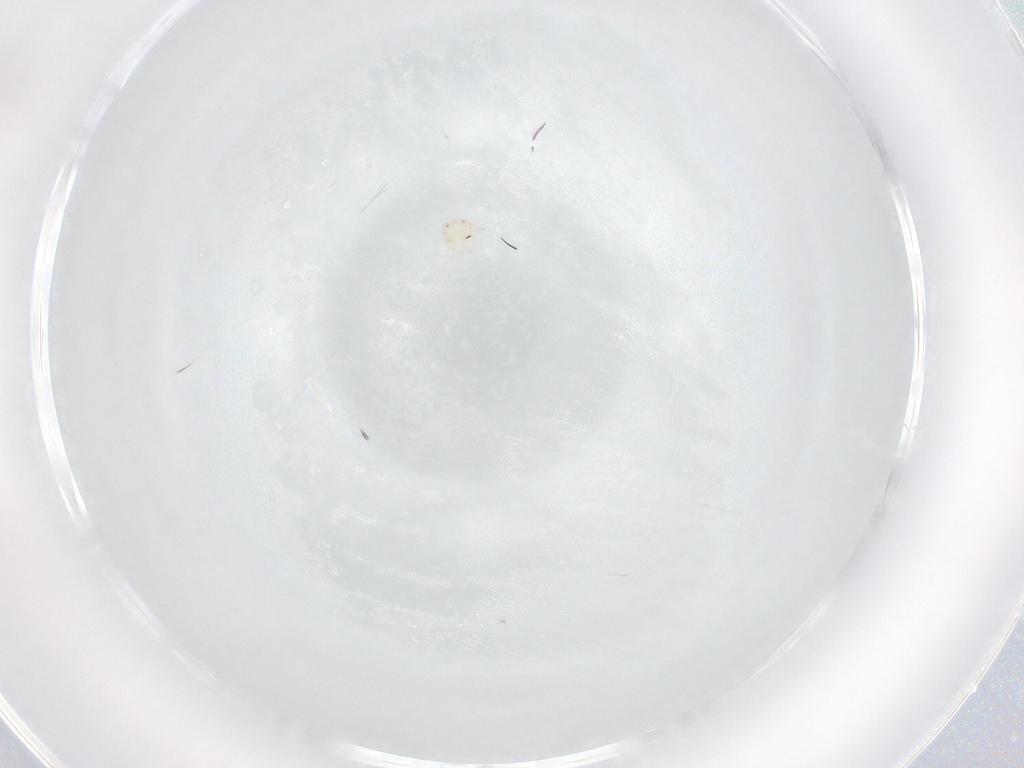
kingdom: Animalia
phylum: Arthropoda
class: Arachnida
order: Trombidiformes
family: Sperchontidae
